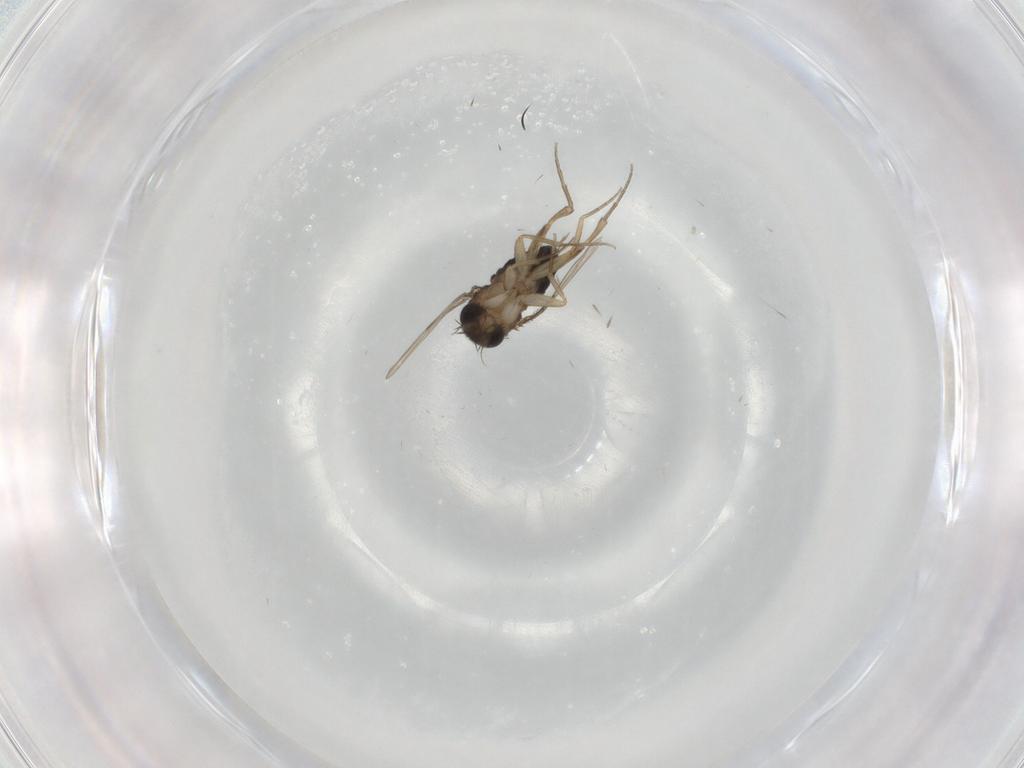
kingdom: Animalia
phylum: Arthropoda
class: Insecta
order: Diptera
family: Phoridae
